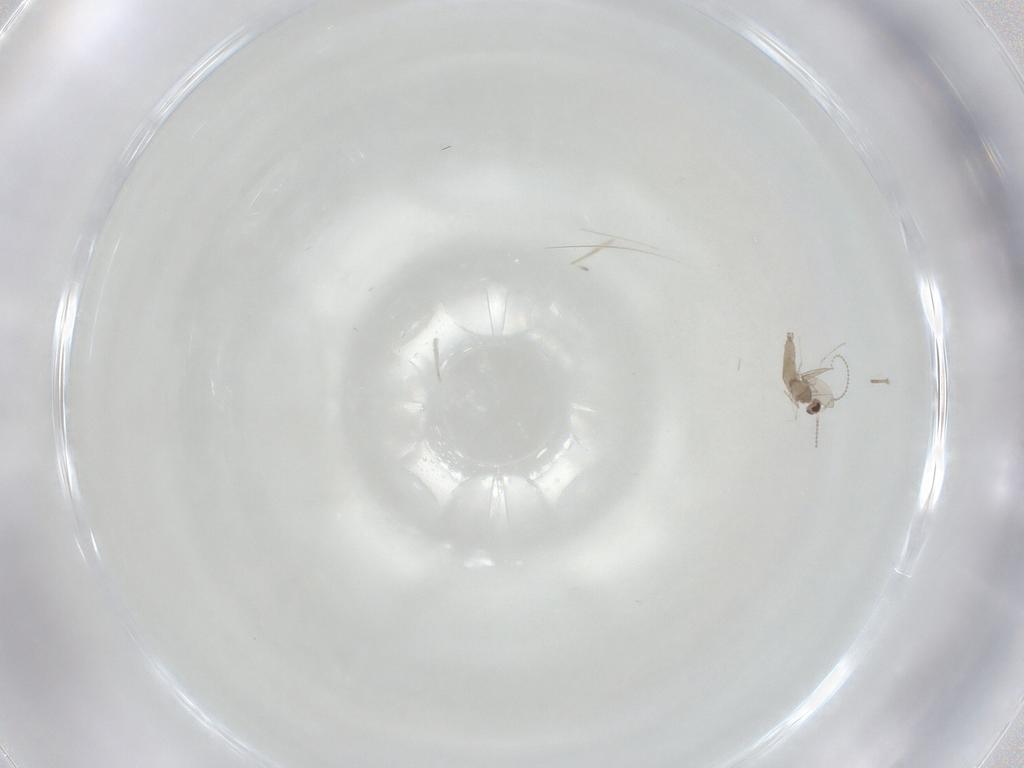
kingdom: Animalia
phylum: Arthropoda
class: Insecta
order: Diptera
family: Cecidomyiidae
